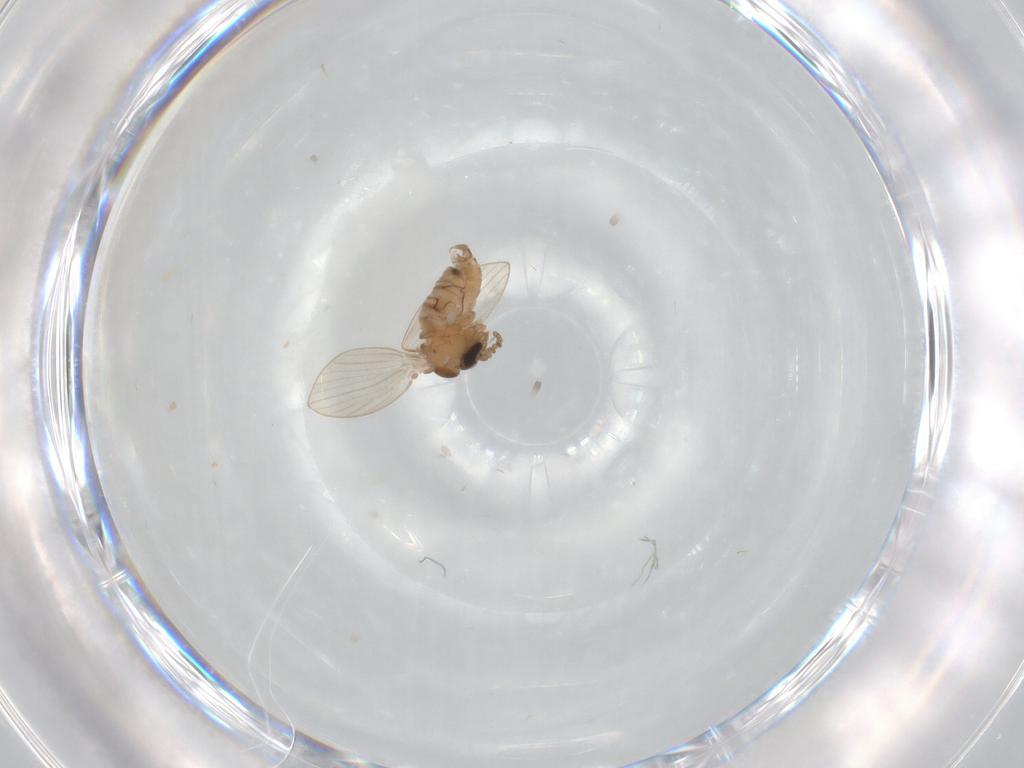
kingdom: Animalia
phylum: Arthropoda
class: Insecta
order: Diptera
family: Psychodidae
